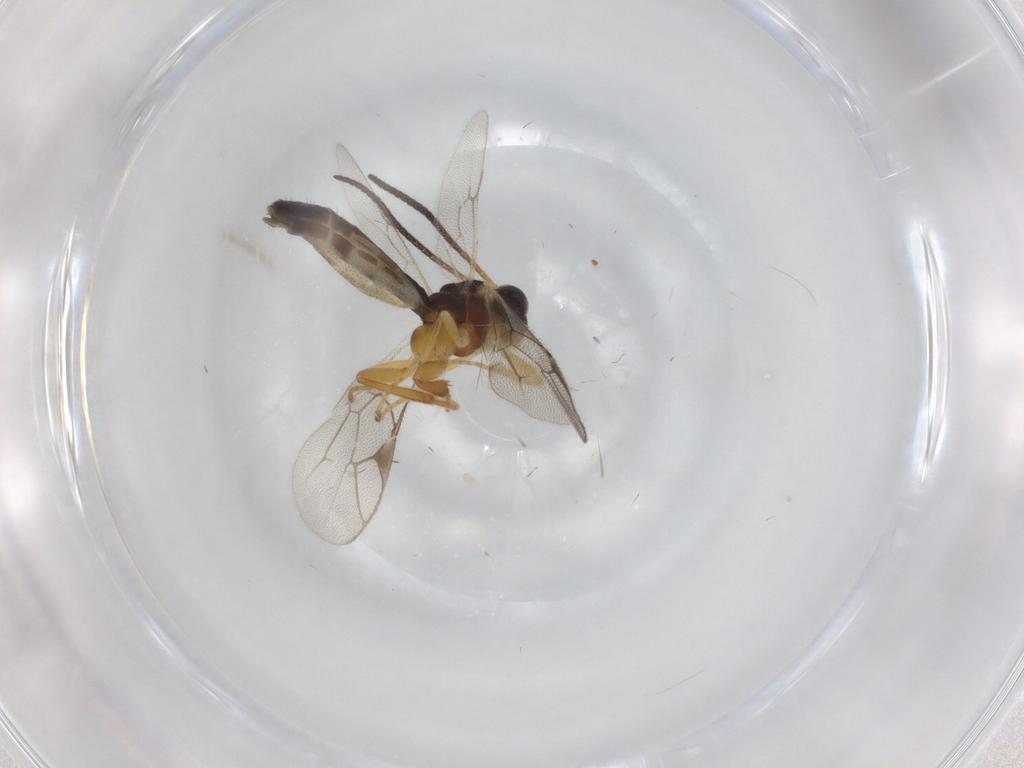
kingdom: Animalia
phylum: Arthropoda
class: Insecta
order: Hymenoptera
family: Ichneumonidae
